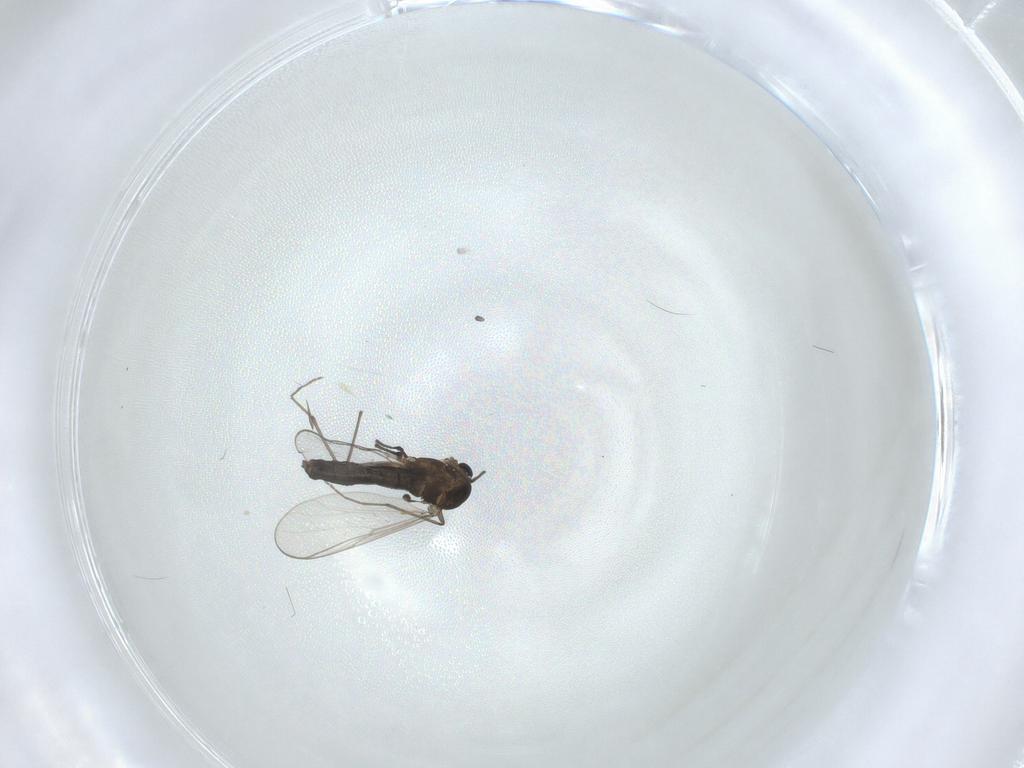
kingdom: Animalia
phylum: Arthropoda
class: Insecta
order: Diptera
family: Chironomidae
